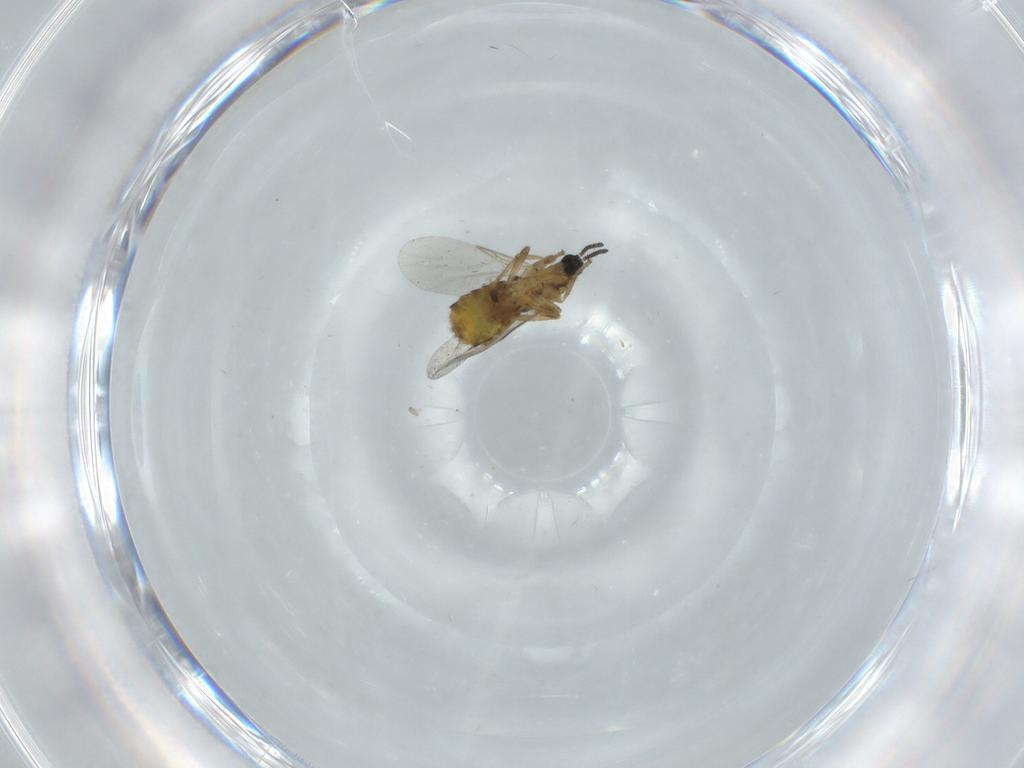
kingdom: Animalia
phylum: Arthropoda
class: Insecta
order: Diptera
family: Scatopsidae
